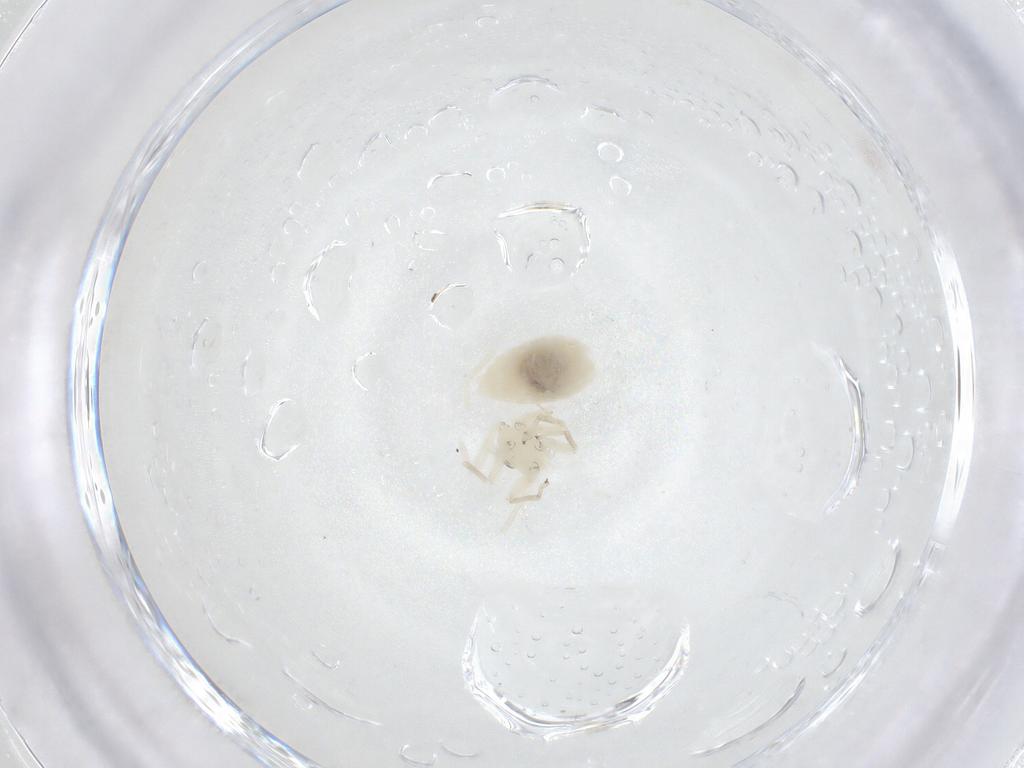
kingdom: Animalia
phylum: Arthropoda
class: Insecta
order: Psocodea
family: Caeciliusidae
